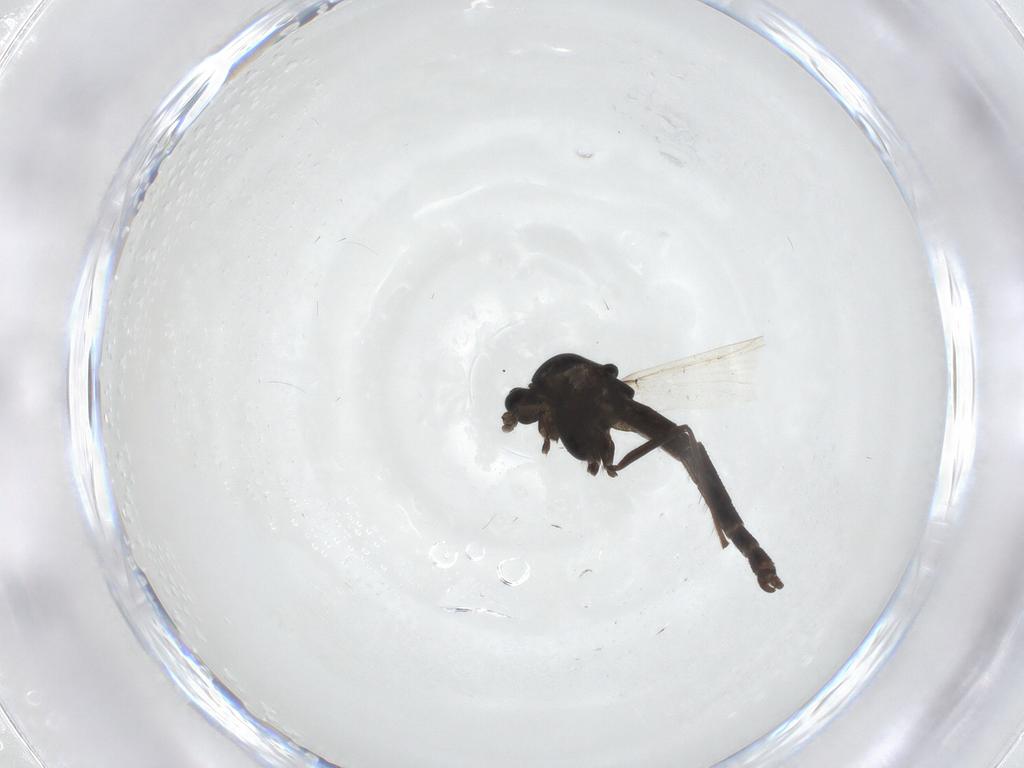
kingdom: Animalia
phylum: Arthropoda
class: Insecta
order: Diptera
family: Chironomidae
